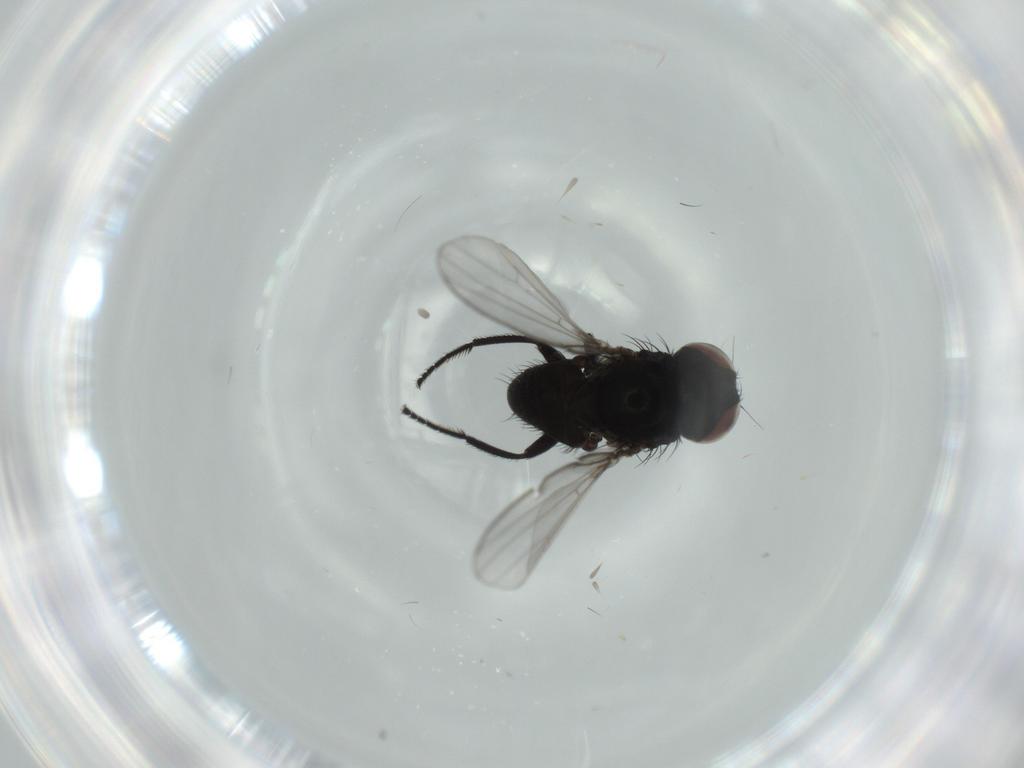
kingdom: Animalia
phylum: Arthropoda
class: Insecta
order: Diptera
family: Milichiidae
